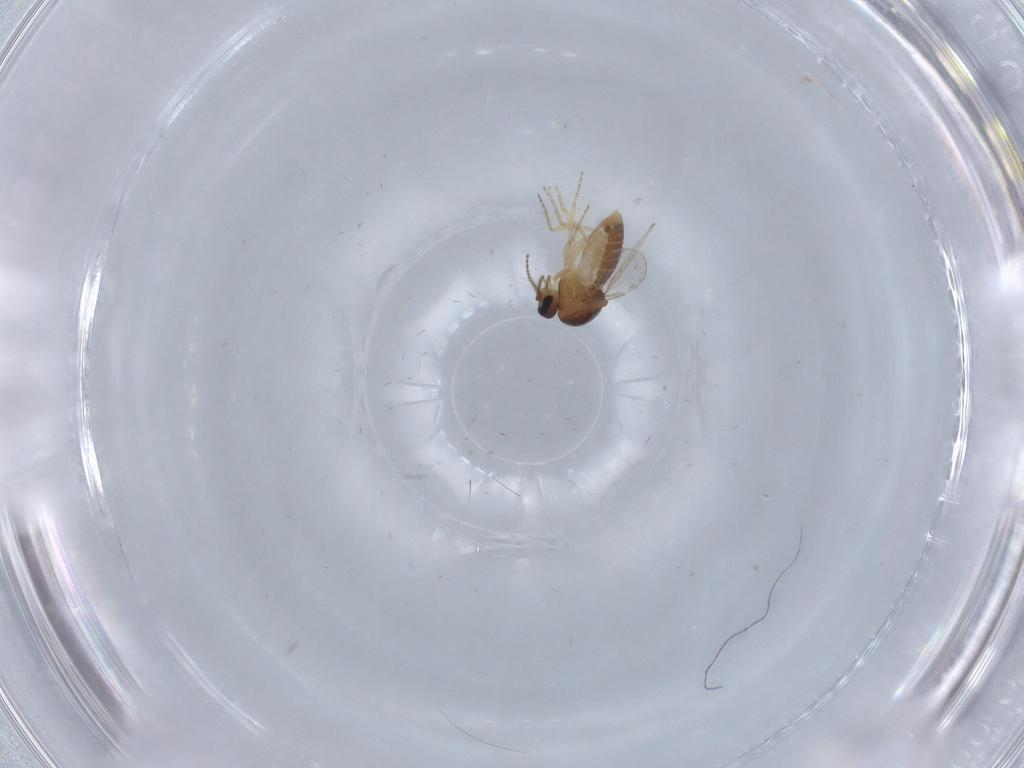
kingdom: Animalia
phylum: Arthropoda
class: Insecta
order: Diptera
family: Ceratopogonidae
